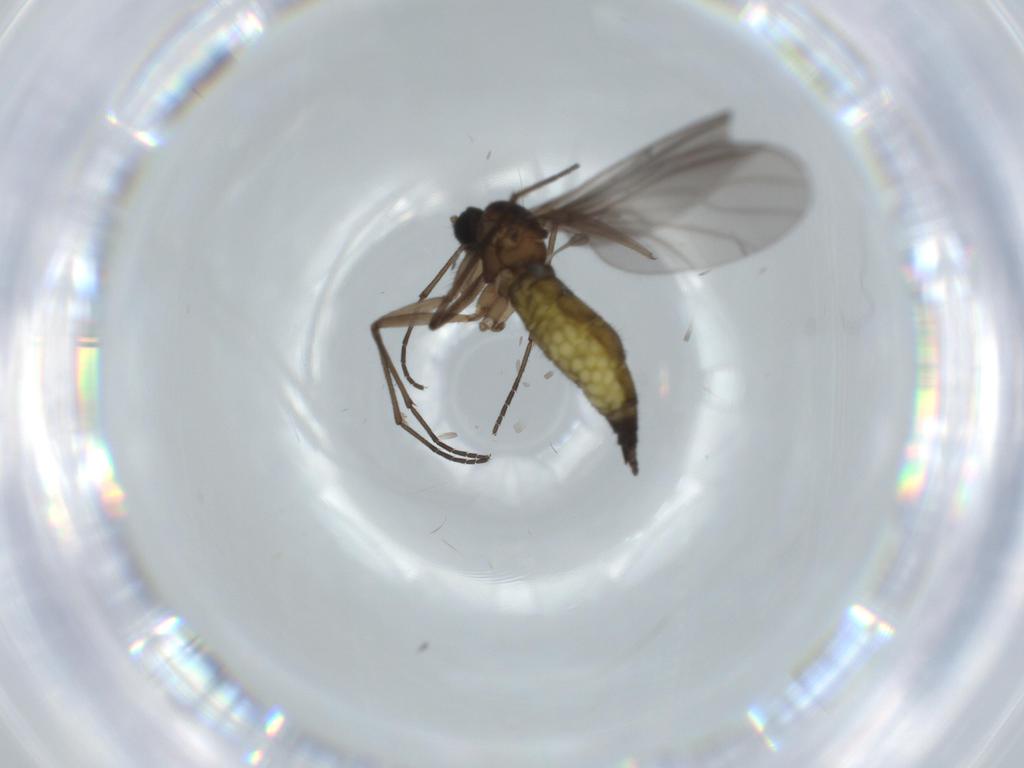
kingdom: Animalia
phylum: Arthropoda
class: Insecta
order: Diptera
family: Sciaridae
